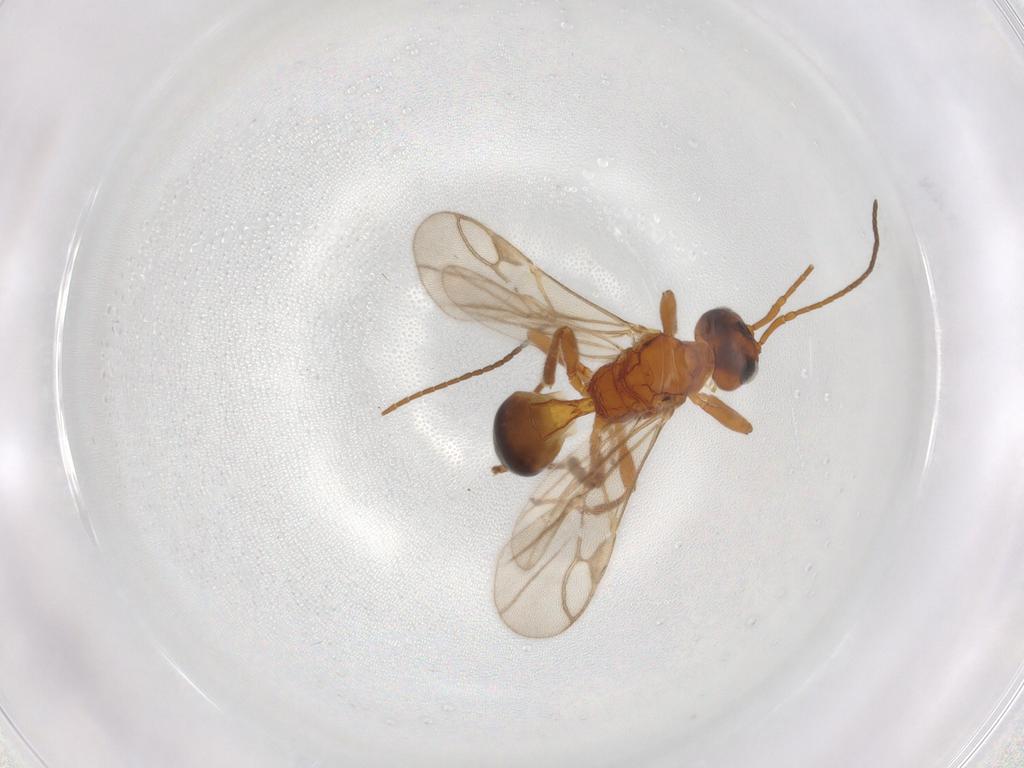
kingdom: Animalia
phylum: Arthropoda
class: Insecta
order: Hymenoptera
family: Braconidae
